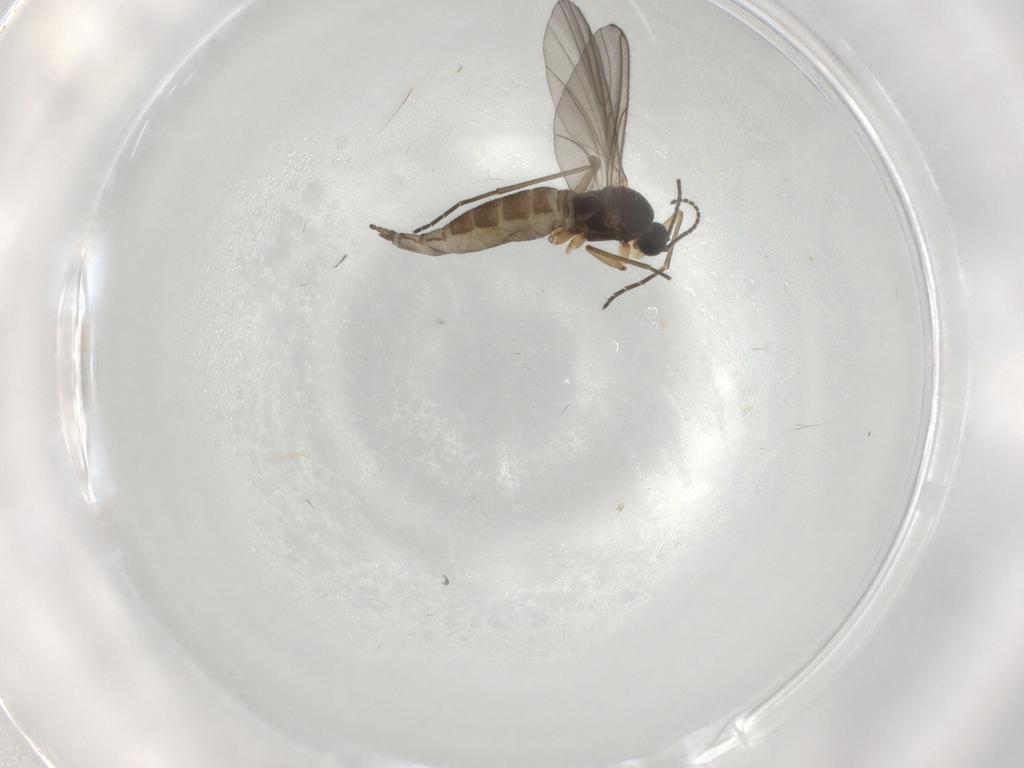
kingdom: Animalia
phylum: Arthropoda
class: Insecta
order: Diptera
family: Sciaridae
